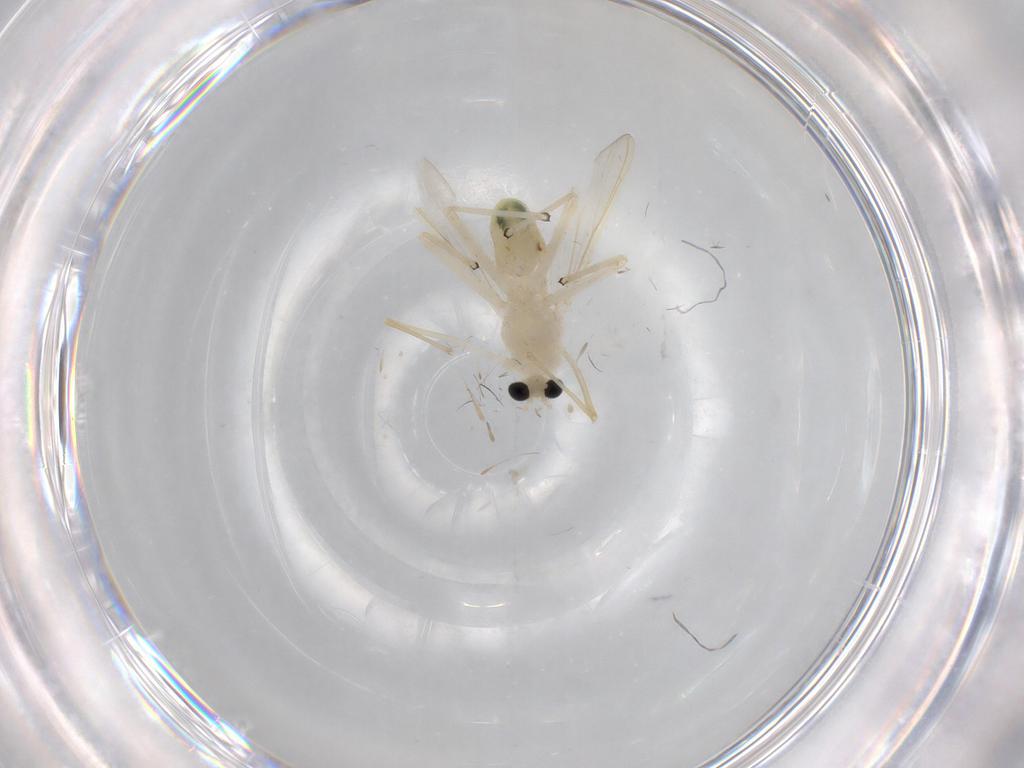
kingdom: Animalia
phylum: Arthropoda
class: Insecta
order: Diptera
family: Chironomidae
